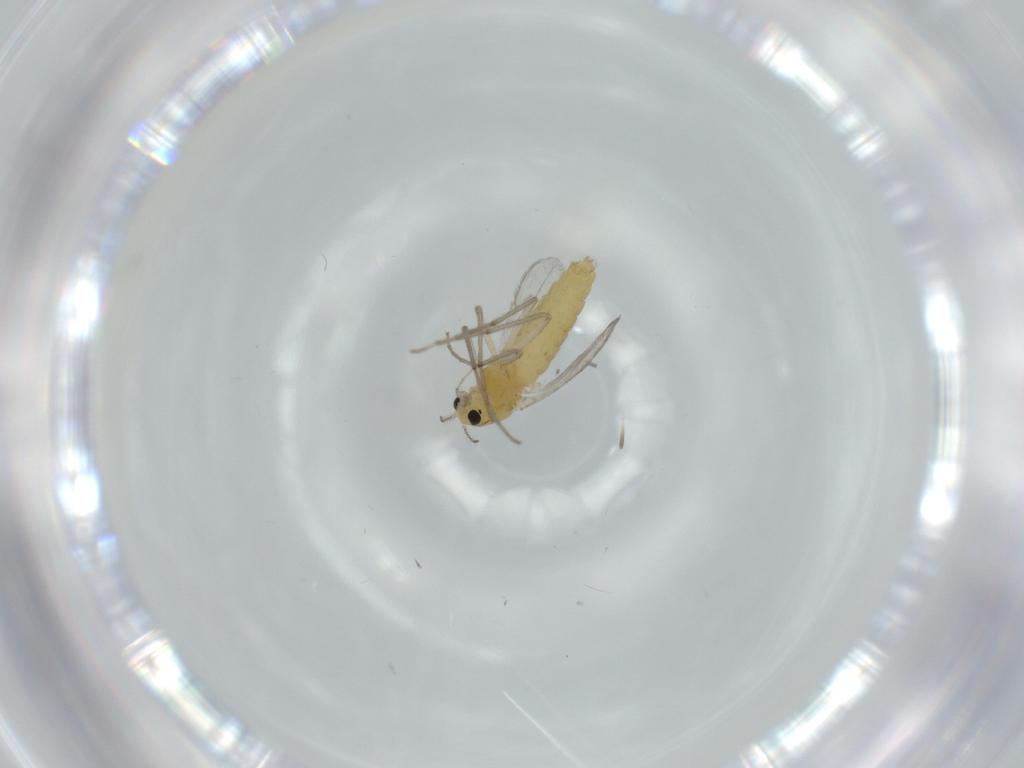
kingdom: Animalia
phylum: Arthropoda
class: Insecta
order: Diptera
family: Chironomidae
